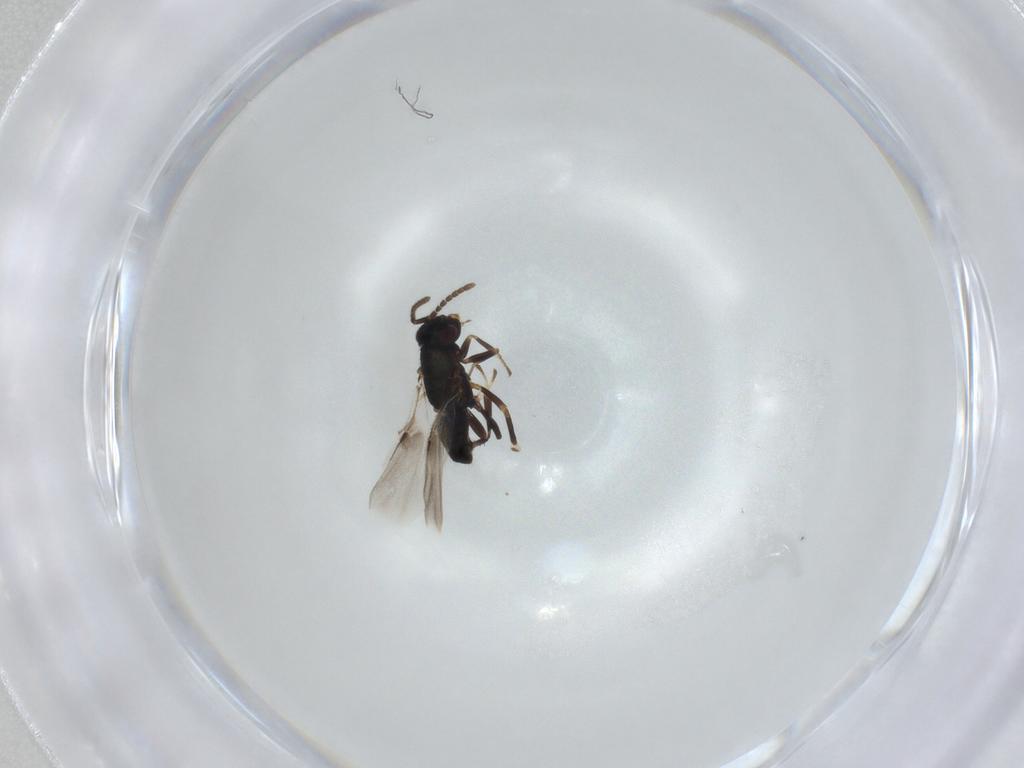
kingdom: Animalia
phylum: Arthropoda
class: Insecta
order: Hymenoptera
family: Encyrtidae
